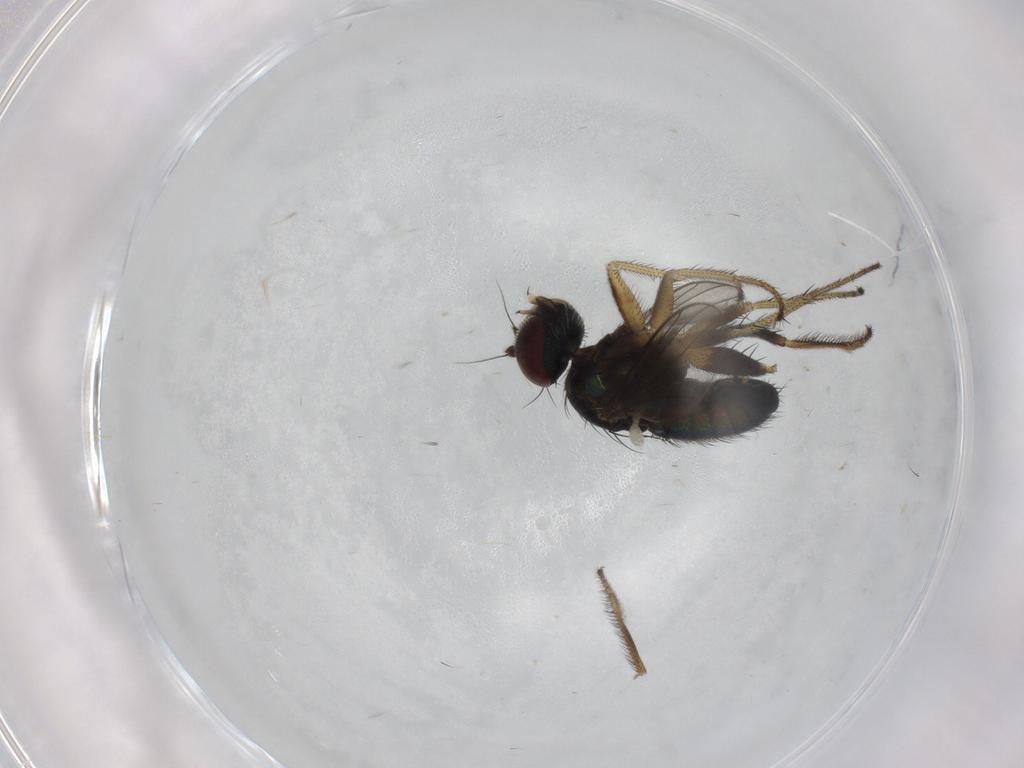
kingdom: Animalia
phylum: Arthropoda
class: Insecta
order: Diptera
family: Dolichopodidae
